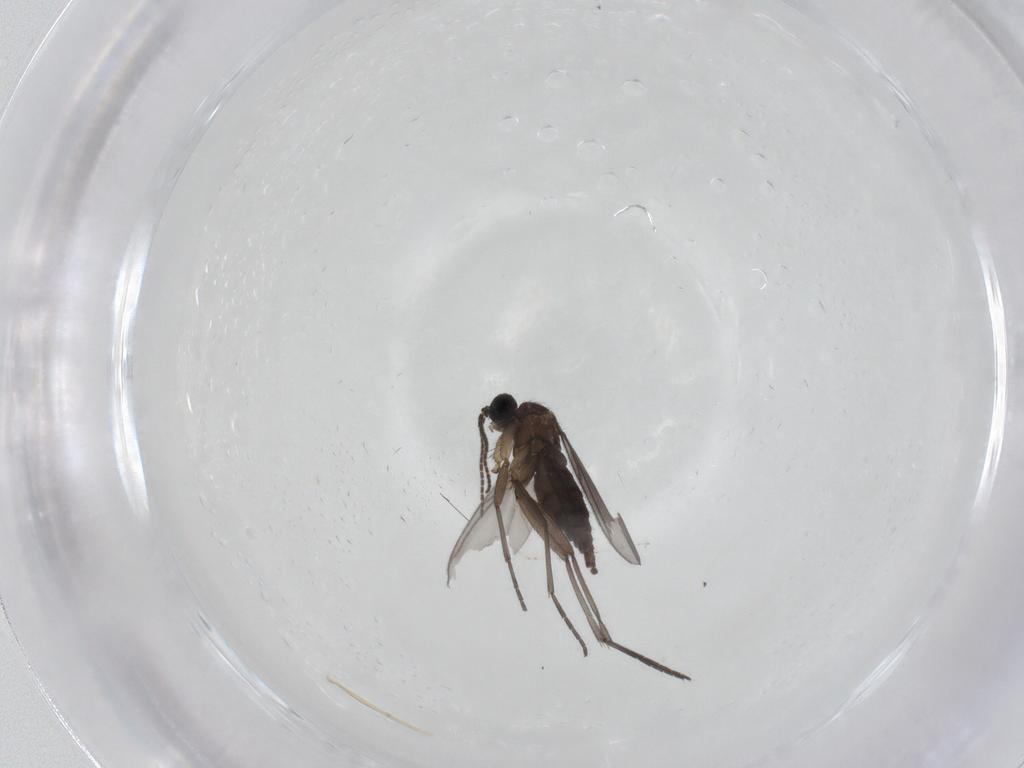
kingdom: Animalia
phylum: Arthropoda
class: Insecta
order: Diptera
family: Sciaridae
